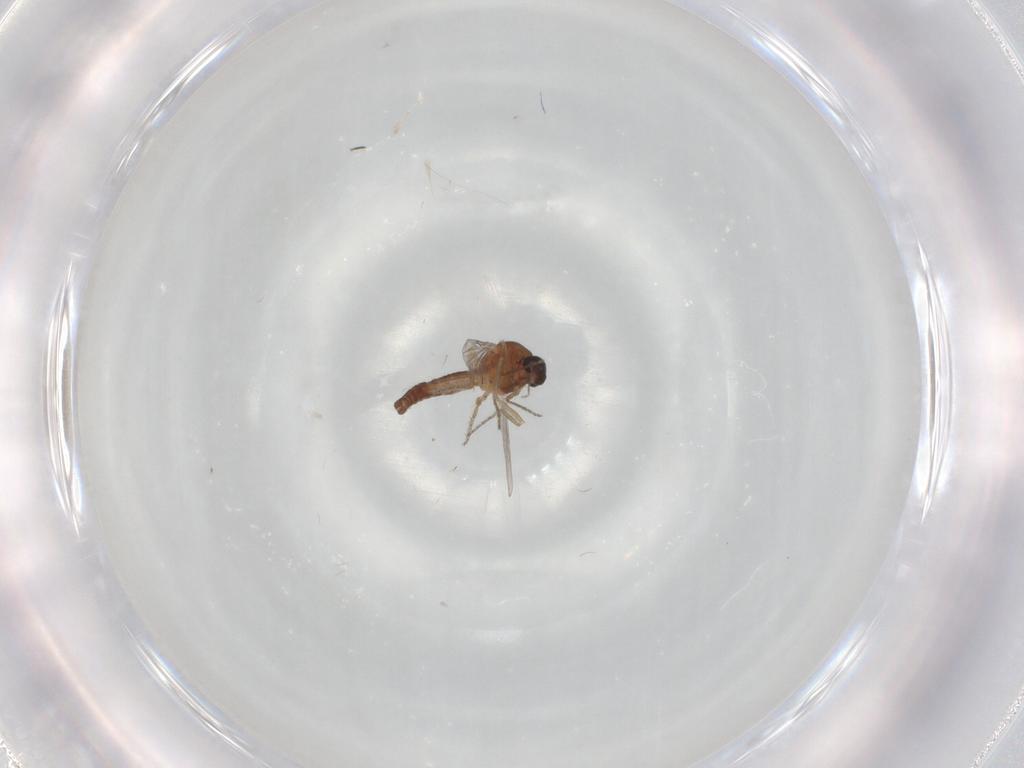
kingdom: Animalia
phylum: Arthropoda
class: Insecta
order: Diptera
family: Ceratopogonidae
